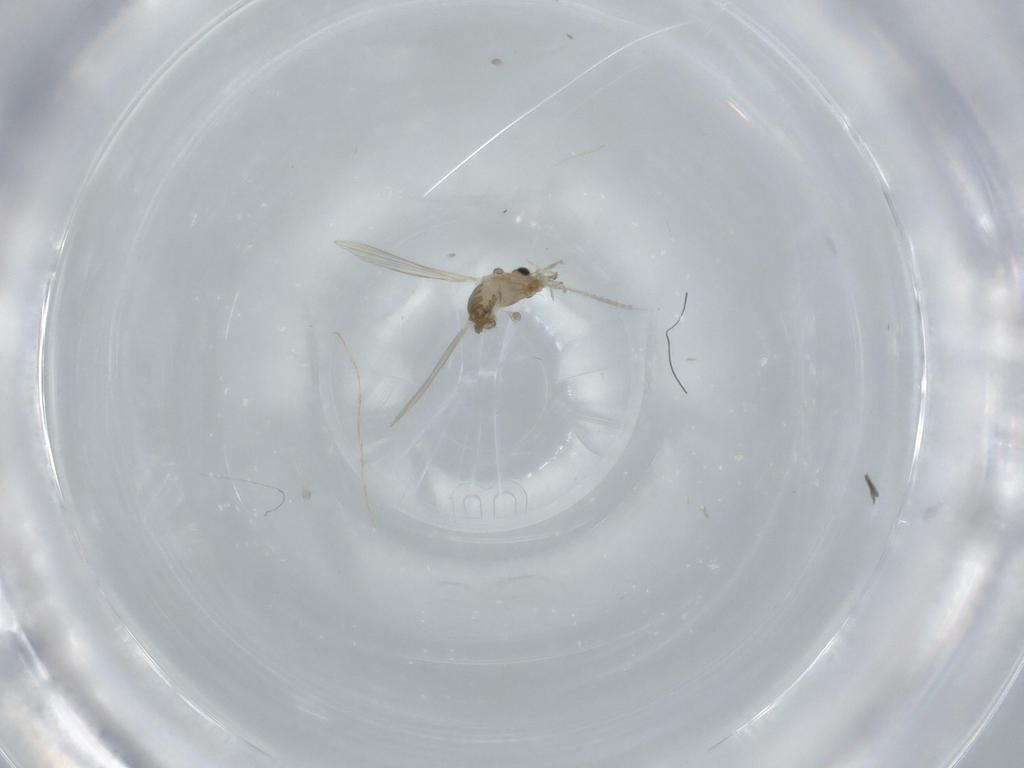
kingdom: Animalia
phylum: Arthropoda
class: Insecta
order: Diptera
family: Psychodidae
